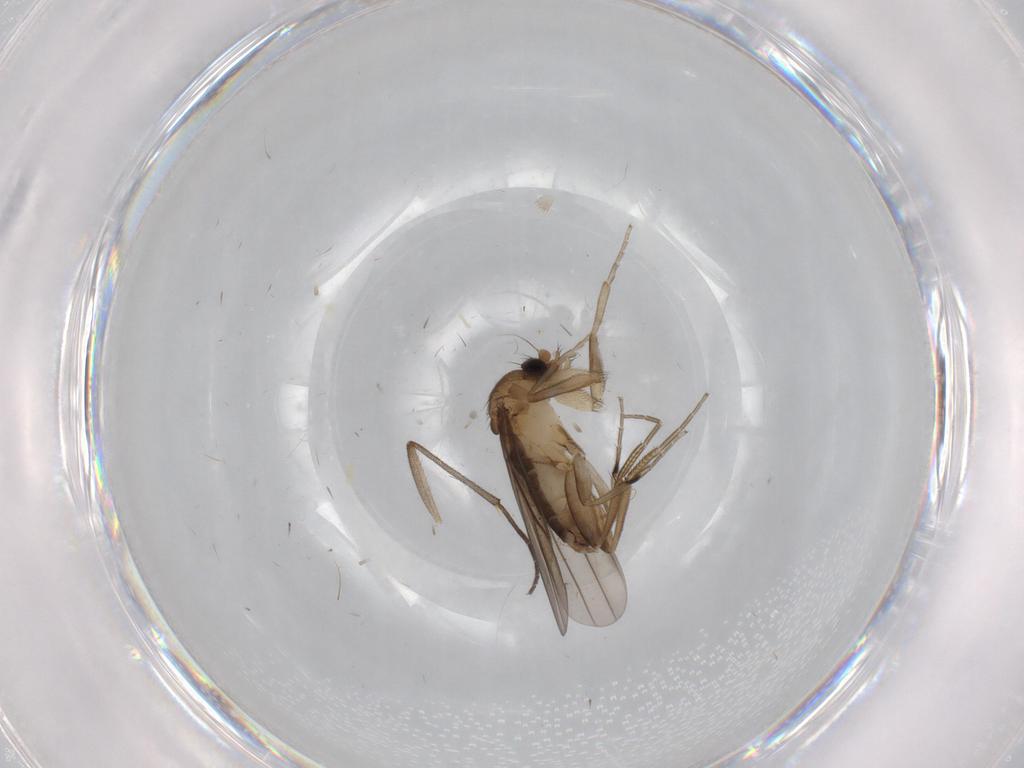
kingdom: Animalia
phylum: Arthropoda
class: Insecta
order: Diptera
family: Phoridae
